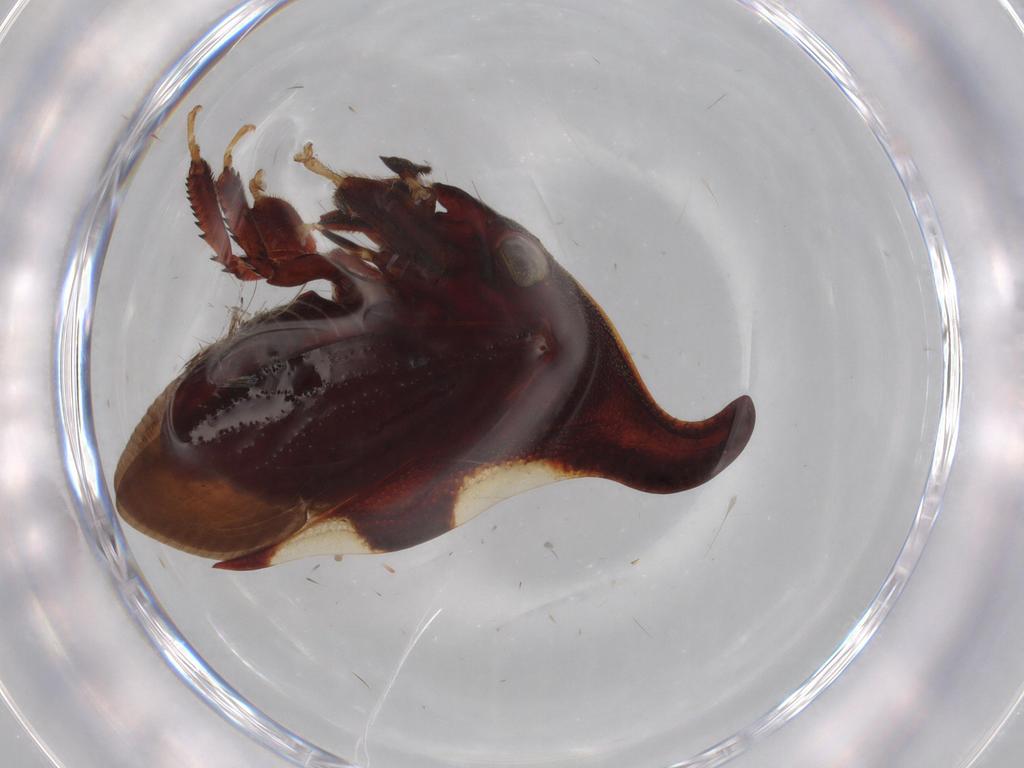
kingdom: Animalia
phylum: Arthropoda
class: Insecta
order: Hemiptera
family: Membracidae
